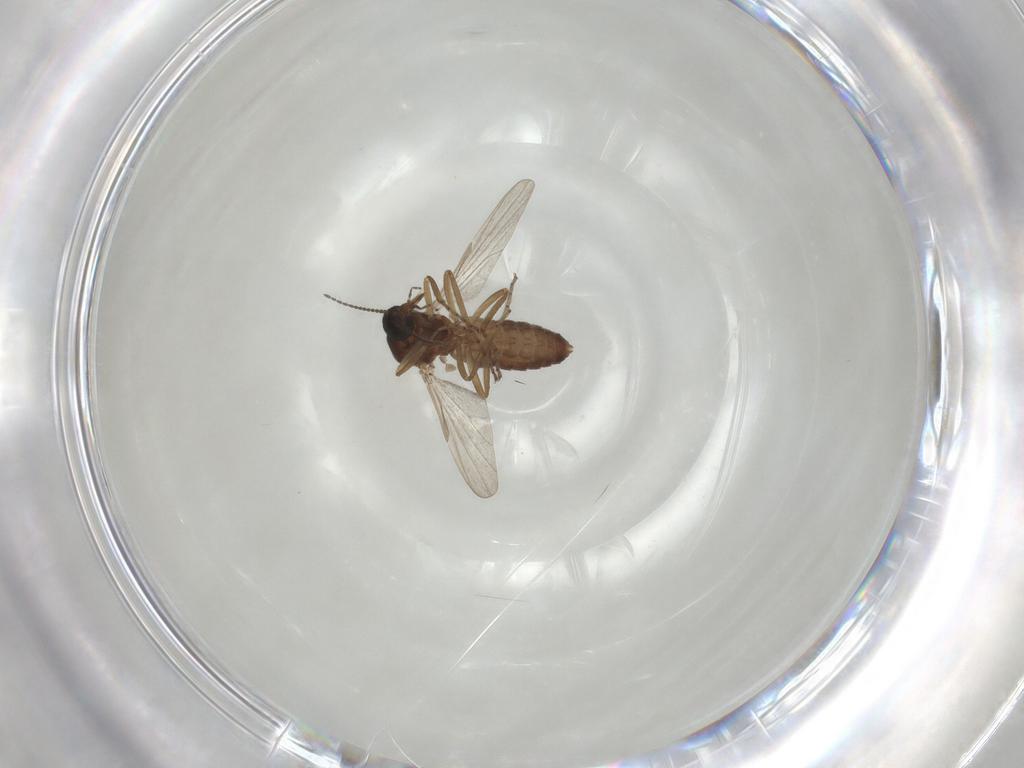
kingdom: Animalia
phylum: Arthropoda
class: Insecta
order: Diptera
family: Ceratopogonidae
